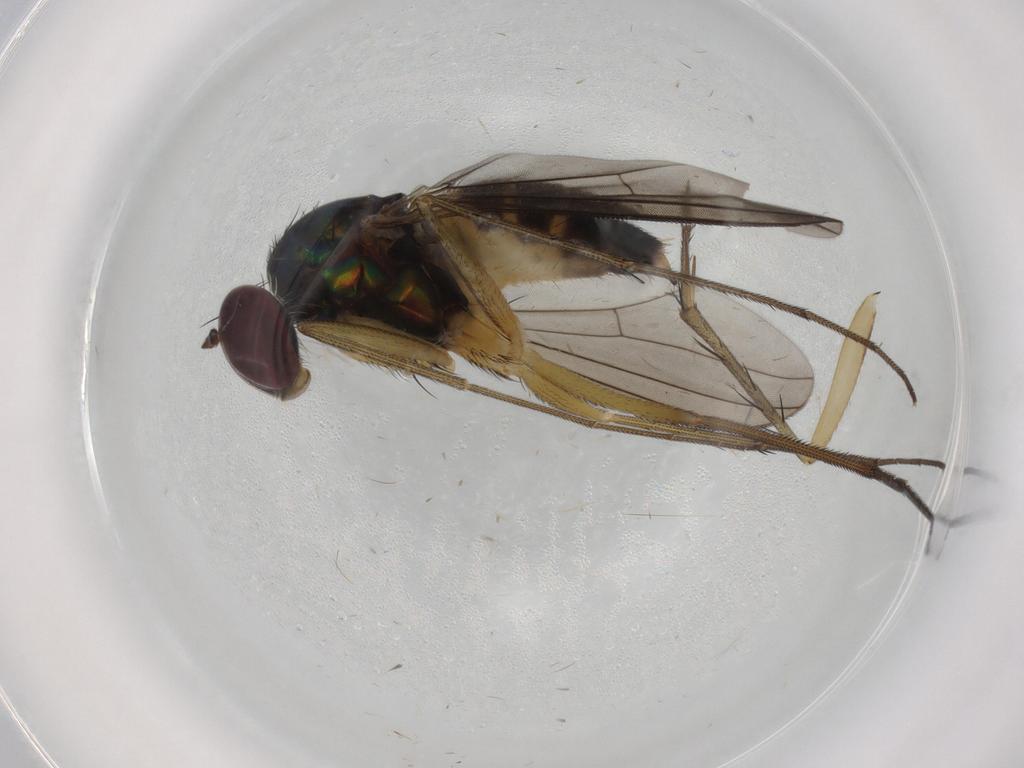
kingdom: Animalia
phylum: Arthropoda
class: Insecta
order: Diptera
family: Dolichopodidae
